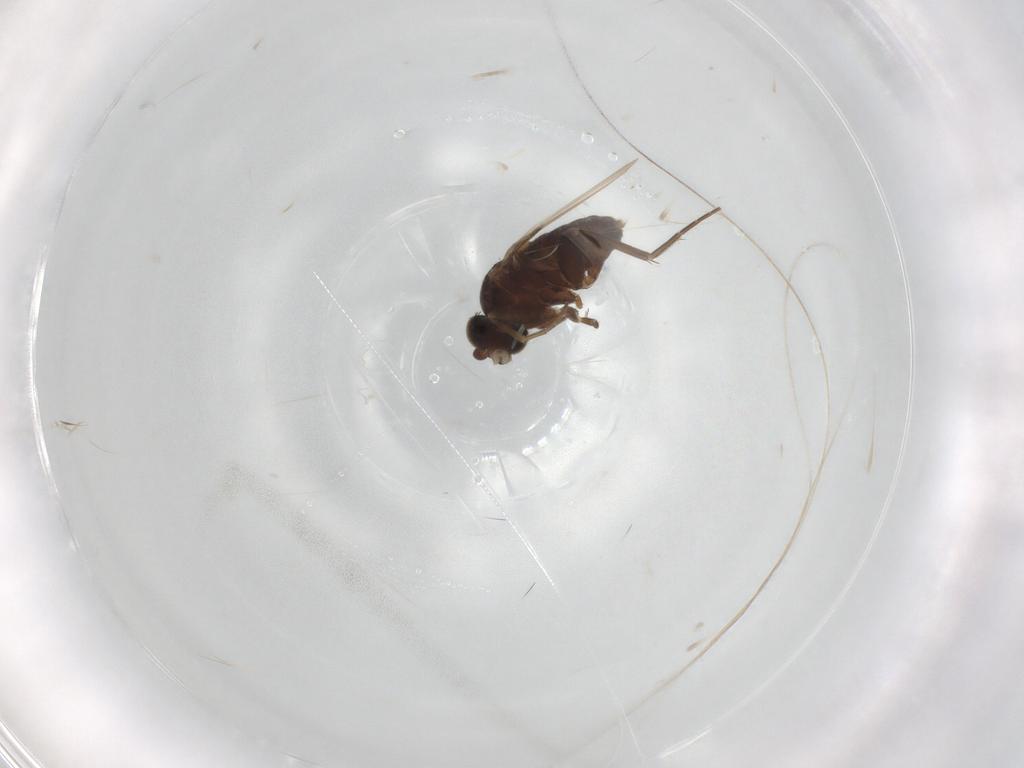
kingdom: Animalia
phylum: Arthropoda
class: Insecta
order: Diptera
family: Phoridae
